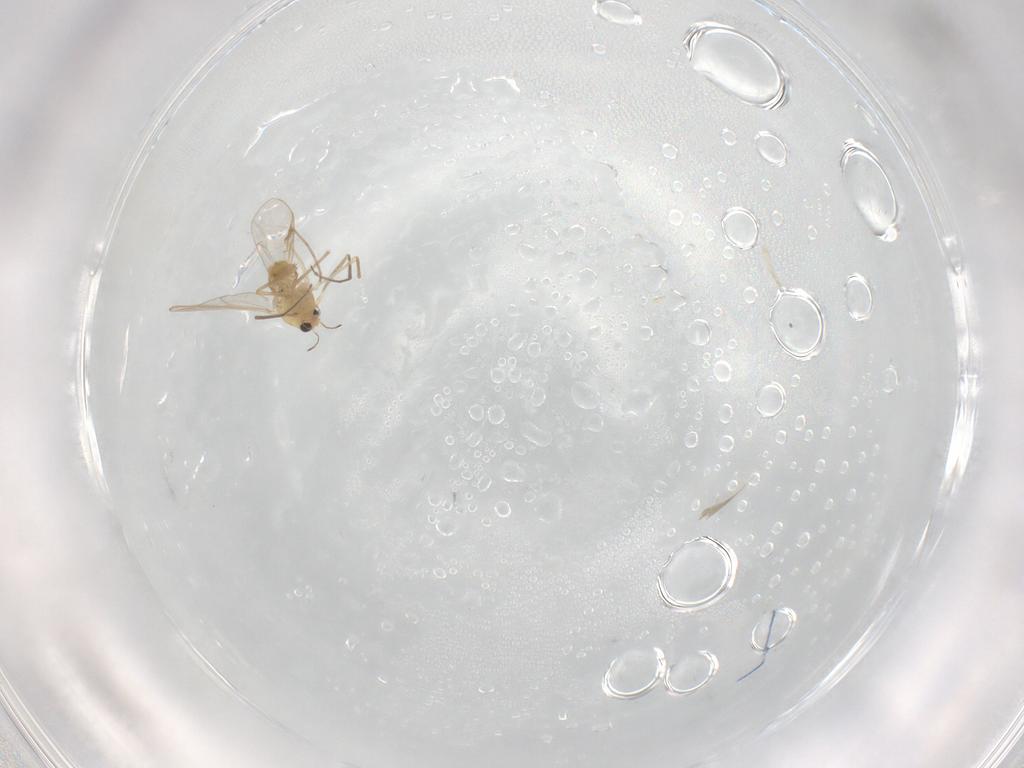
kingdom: Animalia
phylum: Arthropoda
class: Insecta
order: Diptera
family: Chironomidae
